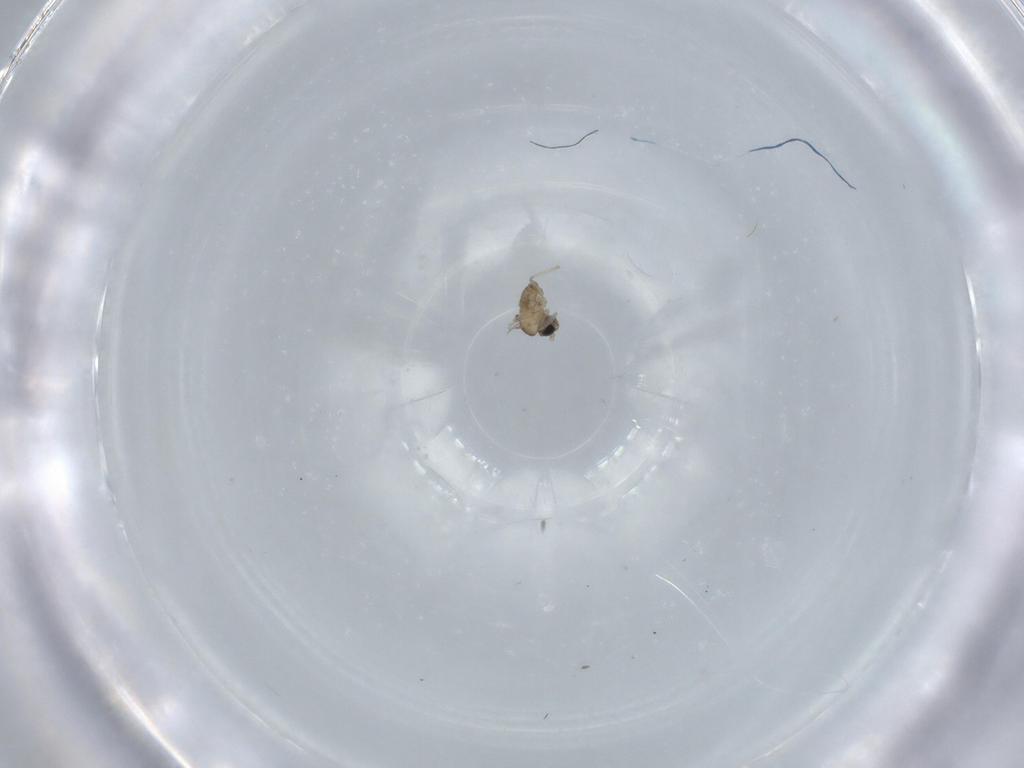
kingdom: Animalia
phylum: Arthropoda
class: Insecta
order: Diptera
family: Cecidomyiidae
